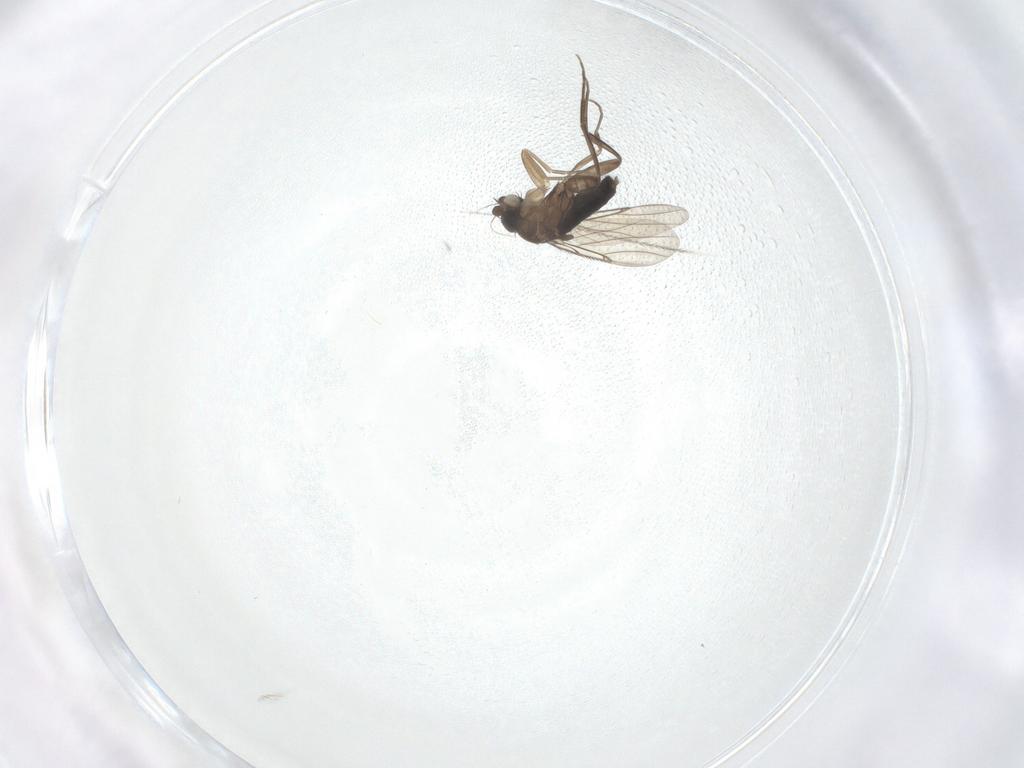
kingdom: Animalia
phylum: Arthropoda
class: Insecta
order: Diptera
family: Phoridae
